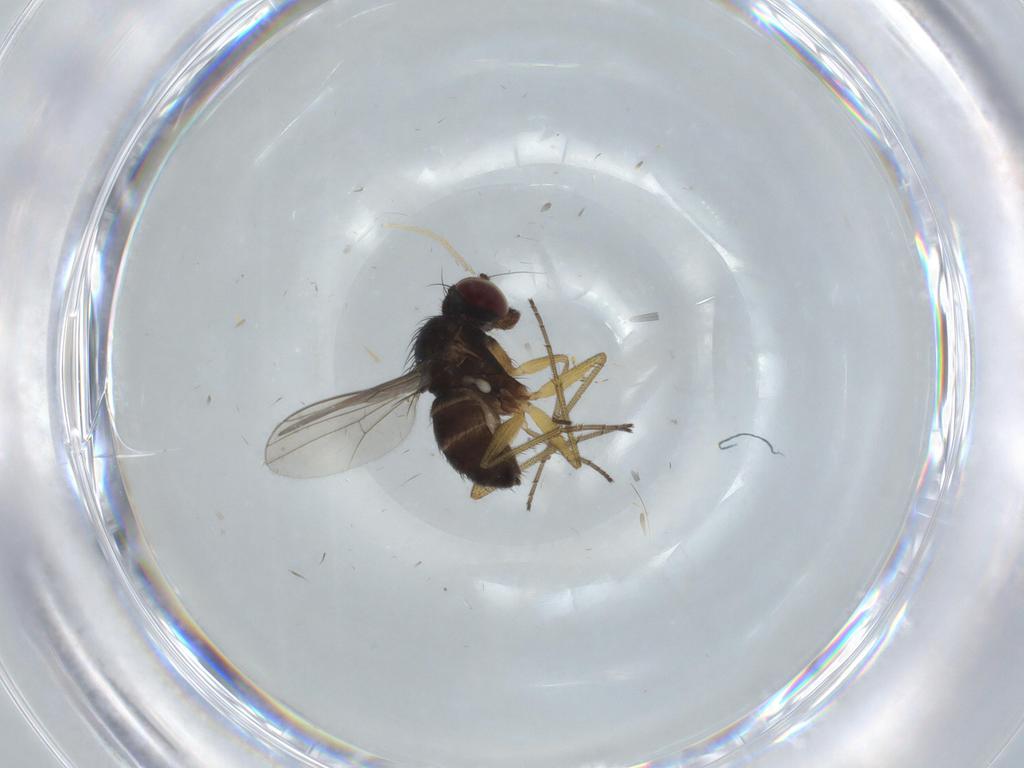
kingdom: Animalia
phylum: Arthropoda
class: Insecta
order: Diptera
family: Dolichopodidae
